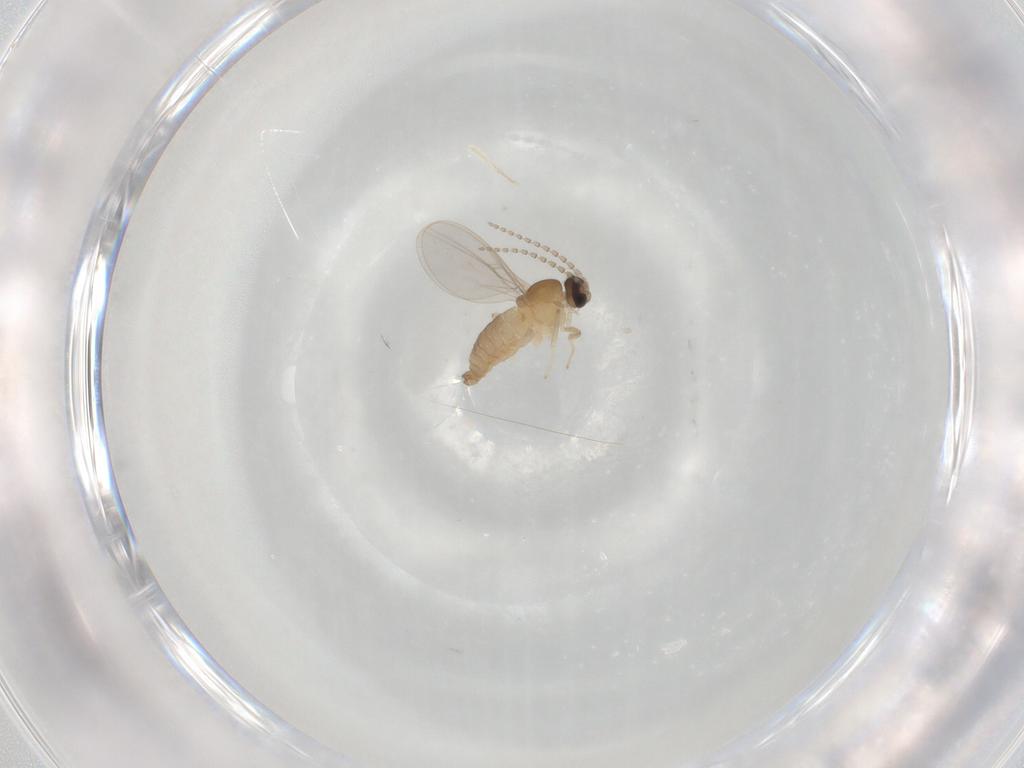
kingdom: Animalia
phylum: Arthropoda
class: Insecta
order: Diptera
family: Cecidomyiidae
